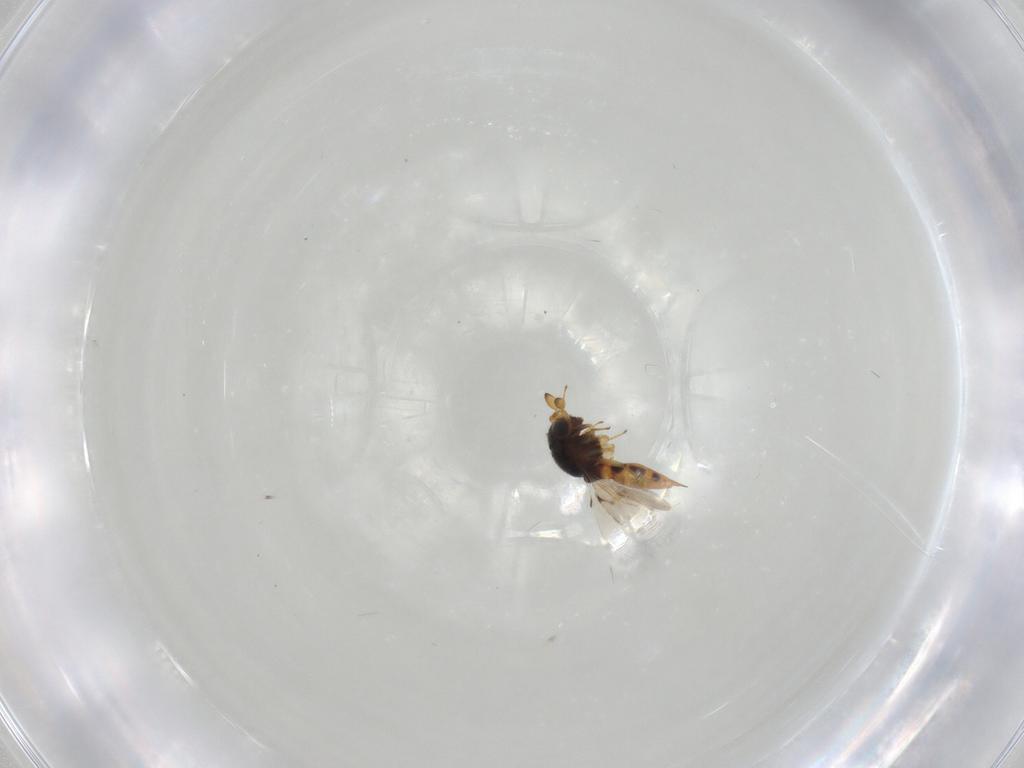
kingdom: Animalia
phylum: Arthropoda
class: Insecta
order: Hymenoptera
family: Scelionidae
